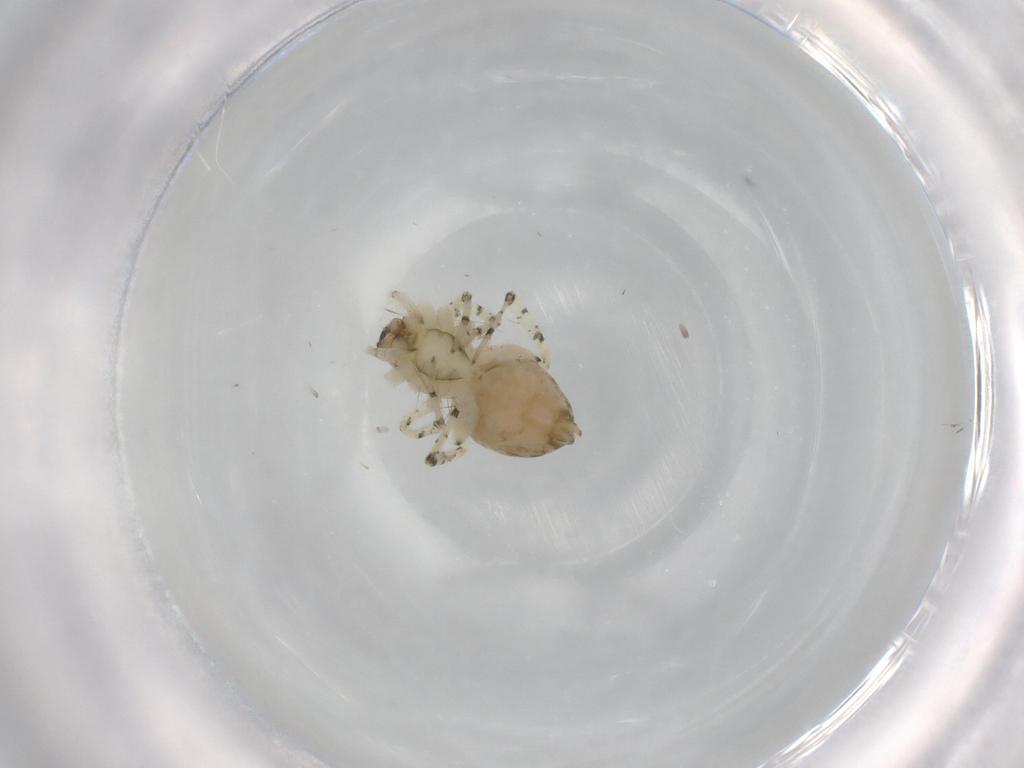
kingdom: Animalia
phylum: Arthropoda
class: Arachnida
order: Araneae
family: Anyphaenidae
